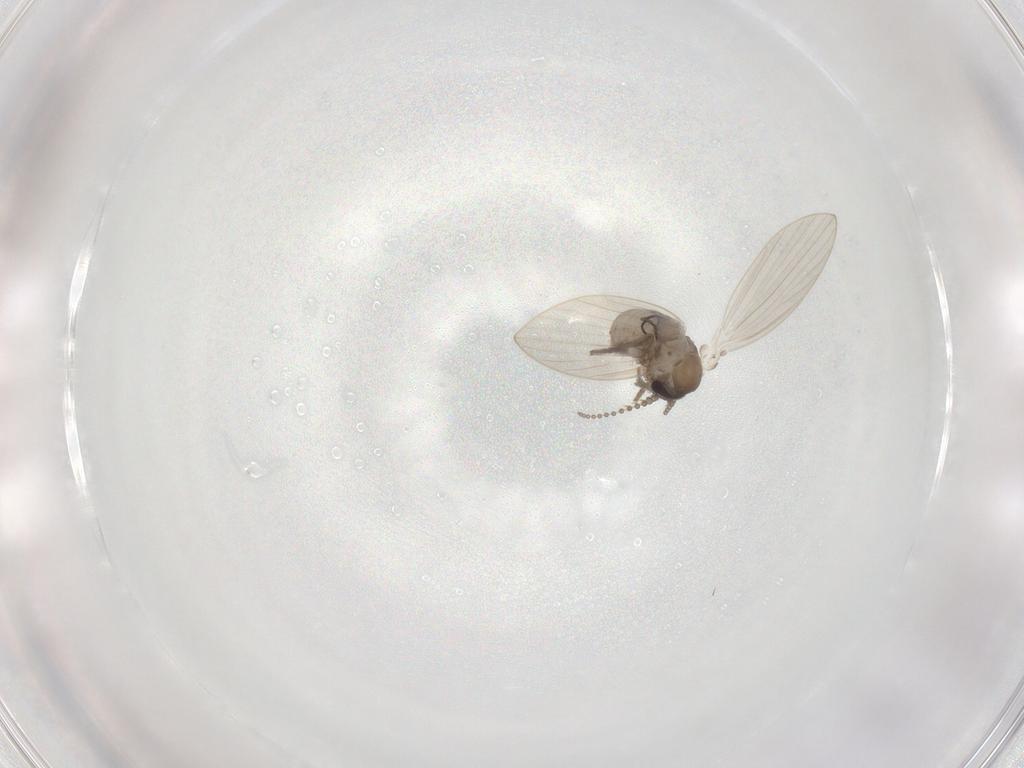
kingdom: Animalia
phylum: Arthropoda
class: Insecta
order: Diptera
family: Psychodidae
